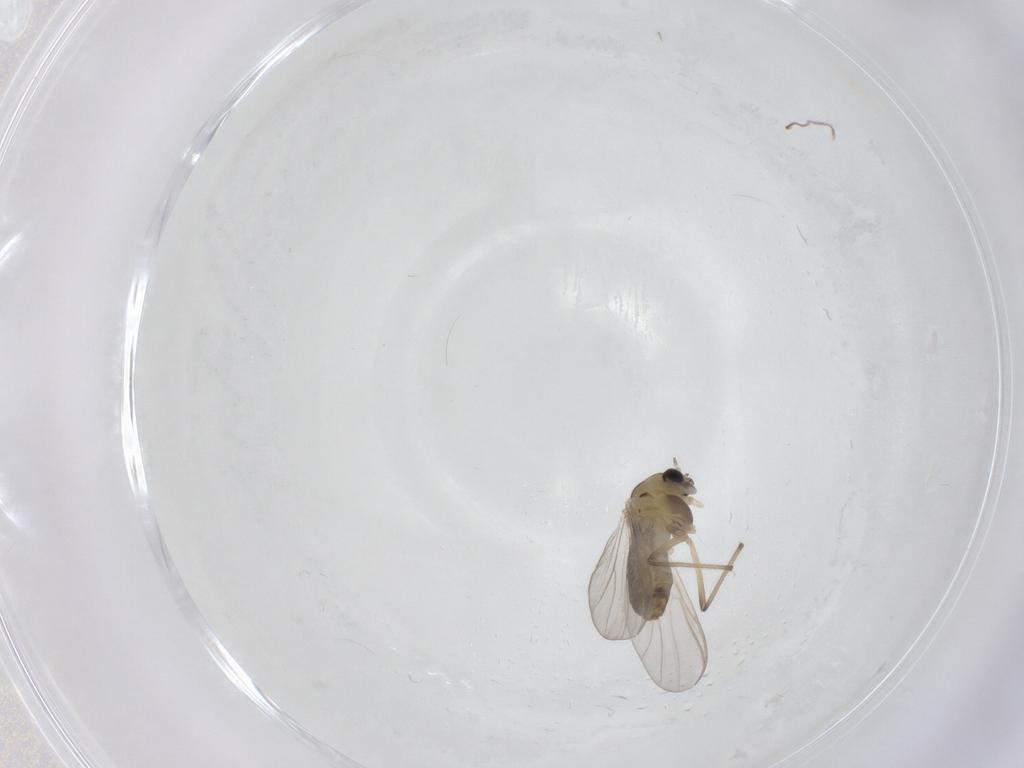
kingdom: Animalia
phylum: Arthropoda
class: Insecta
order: Diptera
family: Chironomidae
